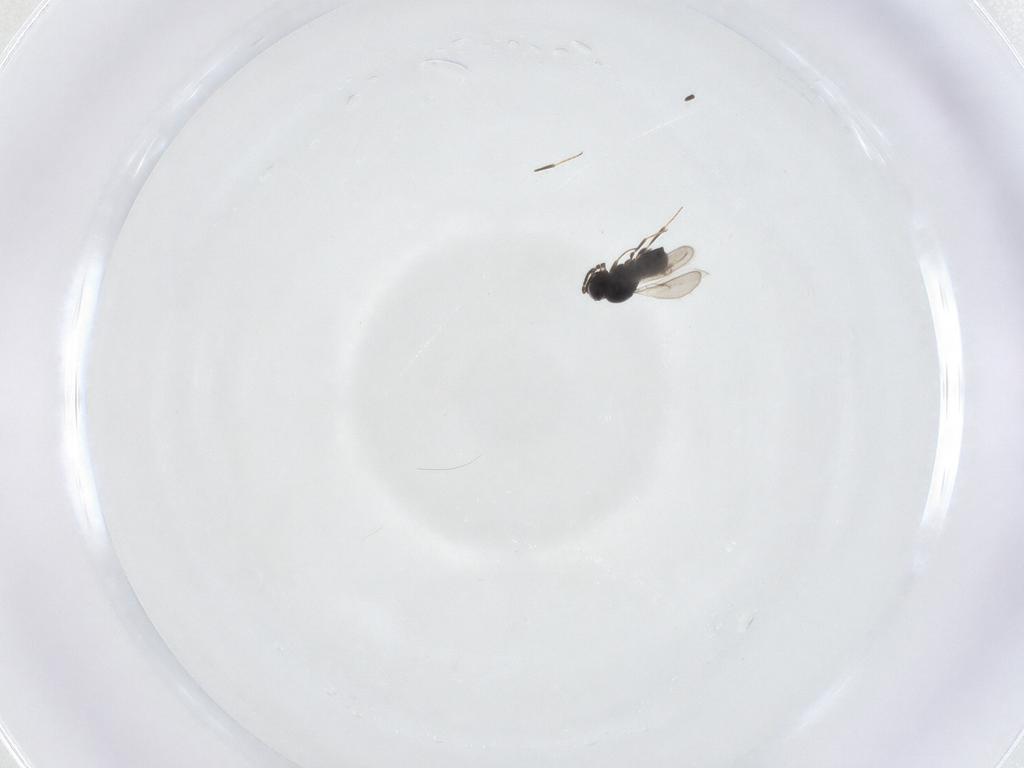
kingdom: Animalia
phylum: Arthropoda
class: Insecta
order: Hymenoptera
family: Scelionidae
